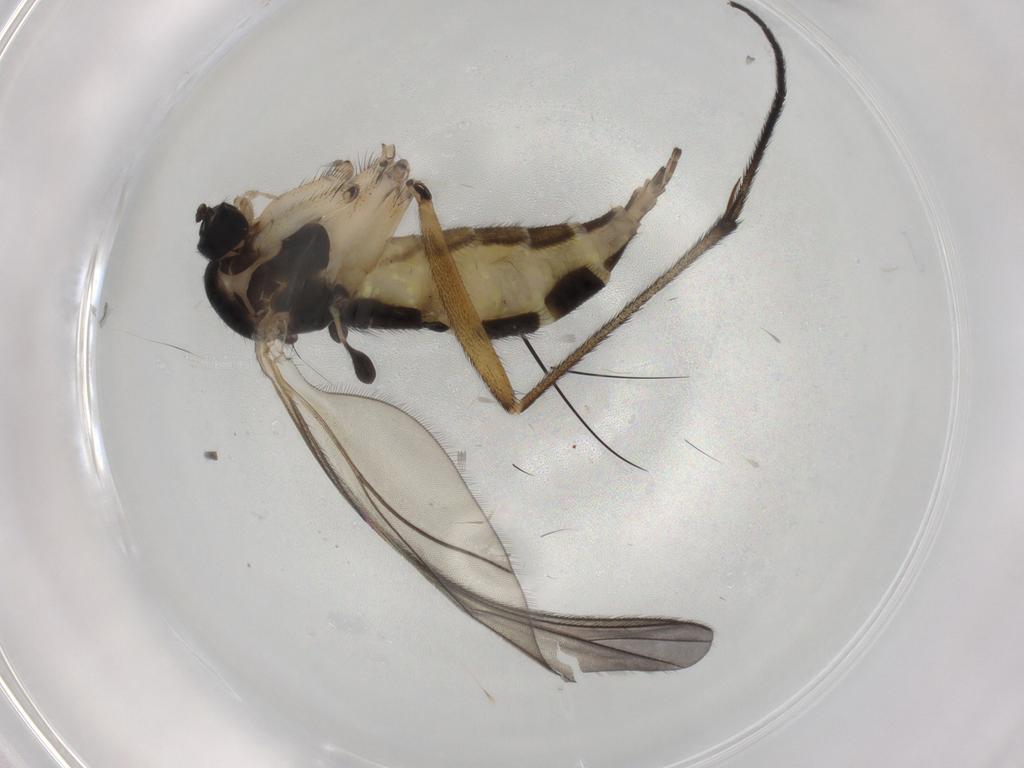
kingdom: Animalia
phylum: Arthropoda
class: Insecta
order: Diptera
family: Sciaridae
